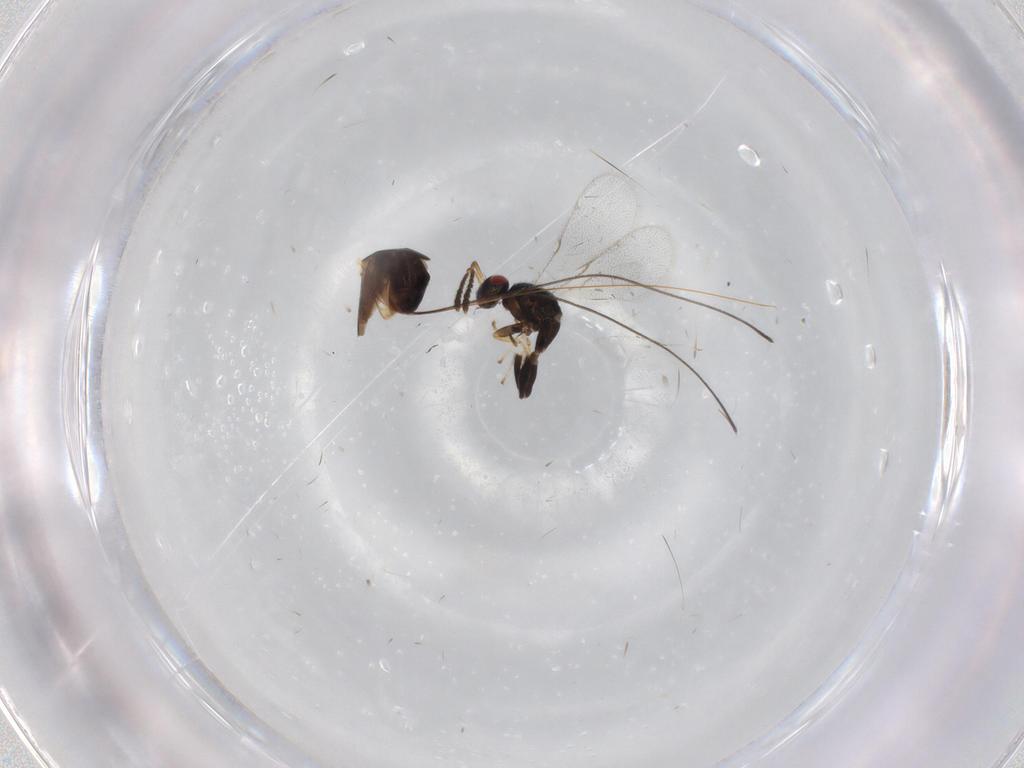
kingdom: Animalia
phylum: Arthropoda
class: Insecta
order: Hymenoptera
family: Torymidae
